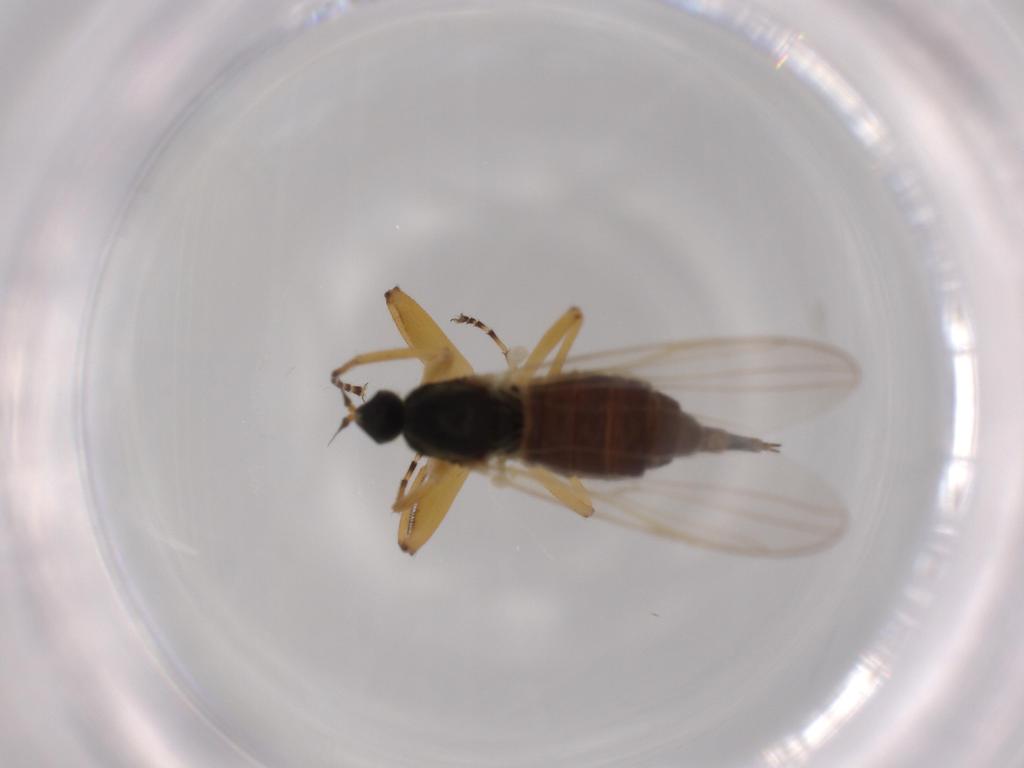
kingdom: Animalia
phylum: Arthropoda
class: Insecta
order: Diptera
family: Hybotidae
